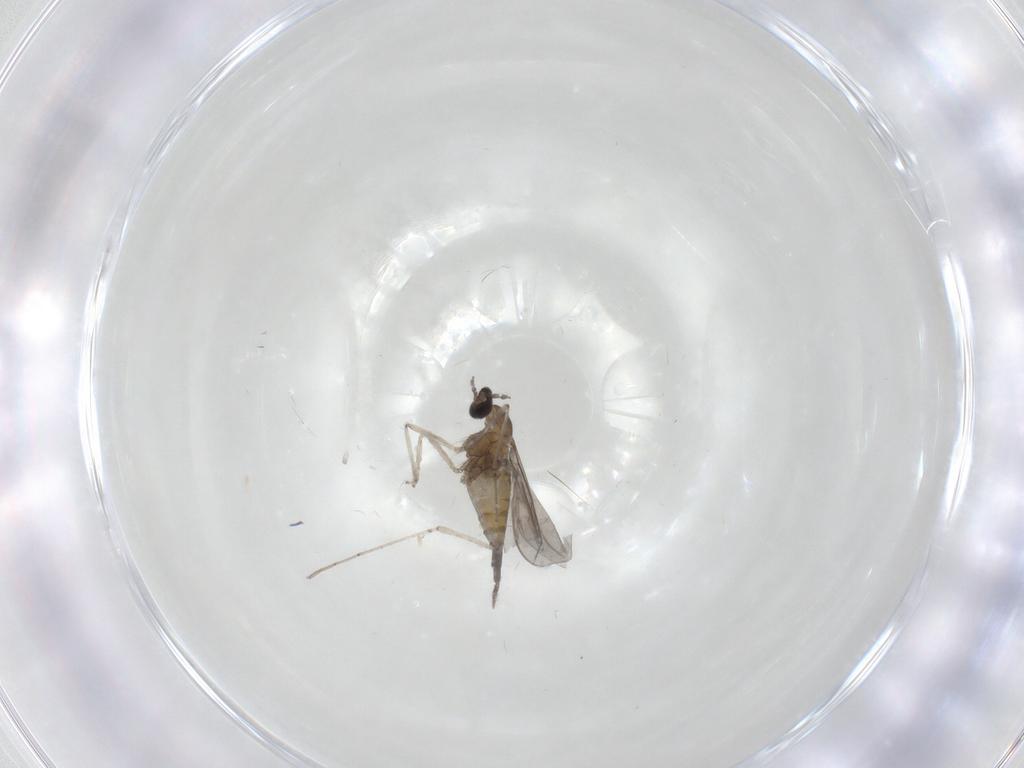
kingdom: Animalia
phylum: Arthropoda
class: Insecta
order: Diptera
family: Cecidomyiidae
